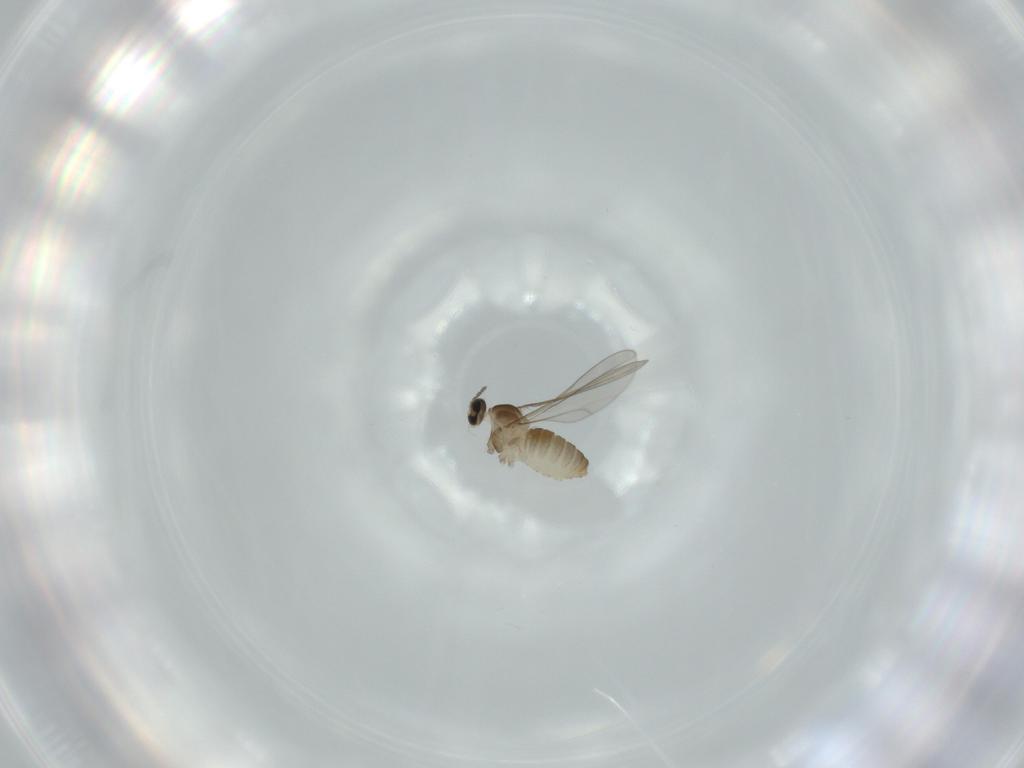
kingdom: Animalia
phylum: Arthropoda
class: Insecta
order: Diptera
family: Cecidomyiidae
